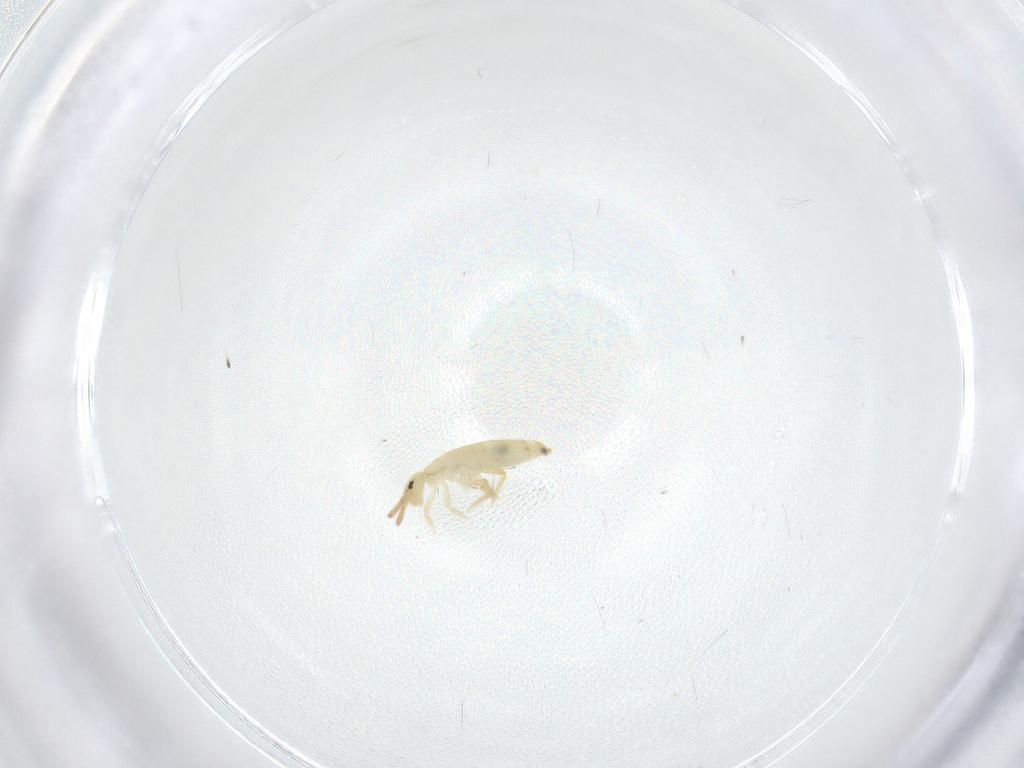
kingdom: Animalia
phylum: Arthropoda
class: Collembola
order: Entomobryomorpha
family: Entomobryidae
